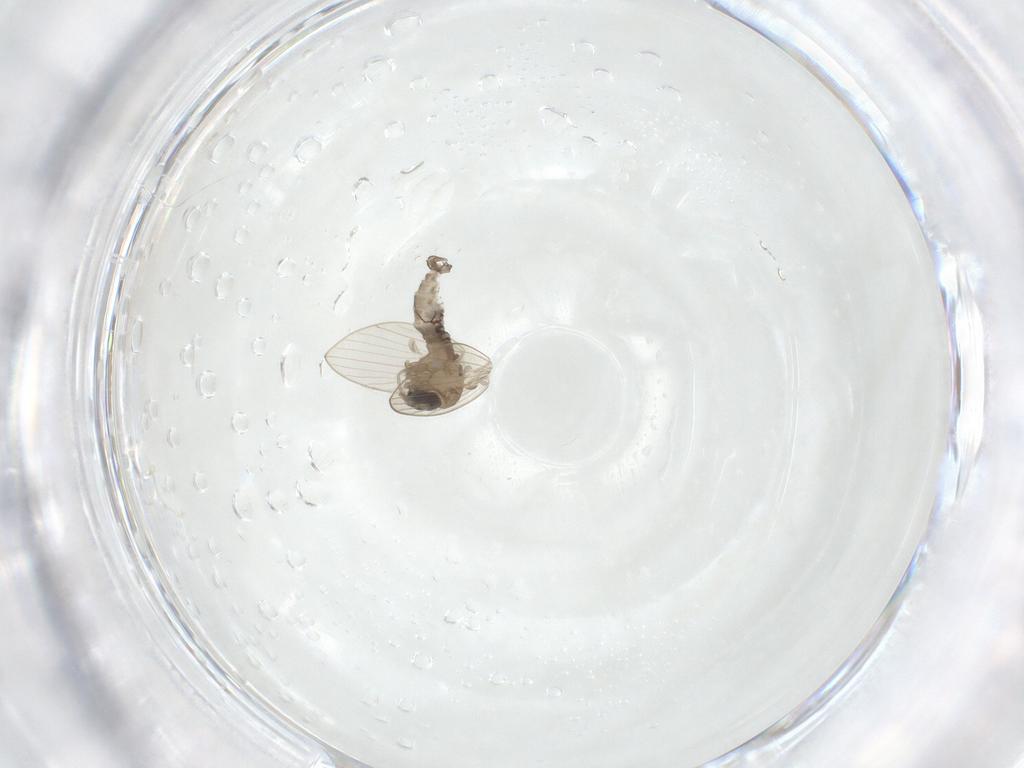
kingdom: Animalia
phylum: Arthropoda
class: Insecta
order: Diptera
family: Psychodidae
